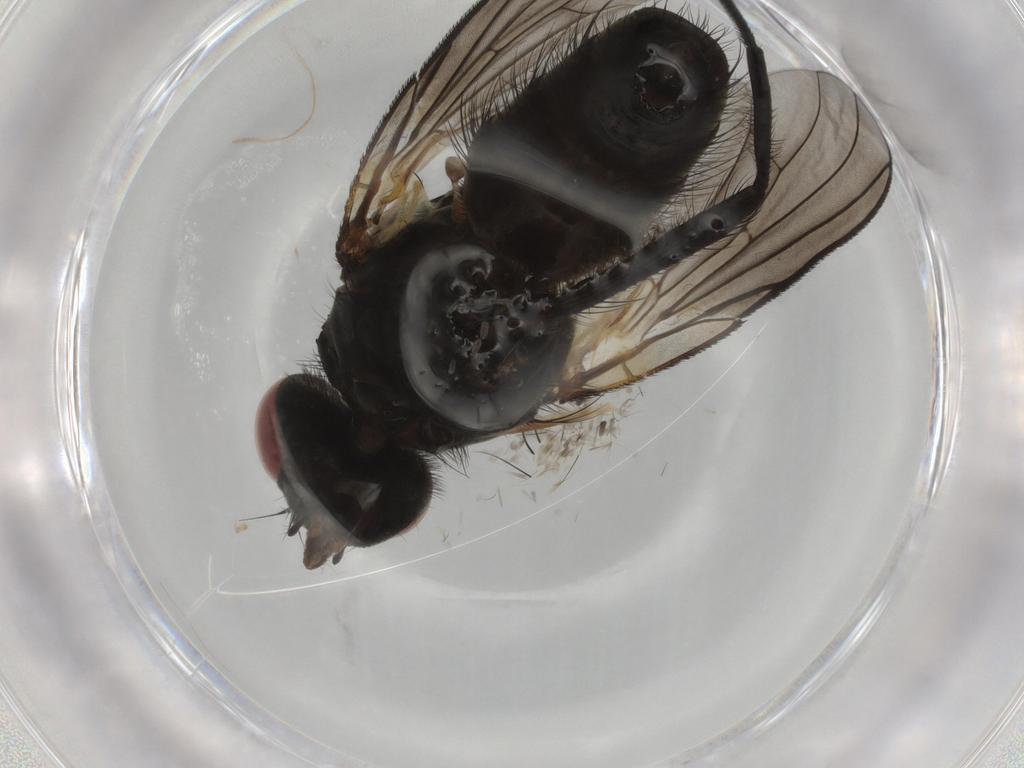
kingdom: Animalia
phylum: Arthropoda
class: Insecta
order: Diptera
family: Muscidae
